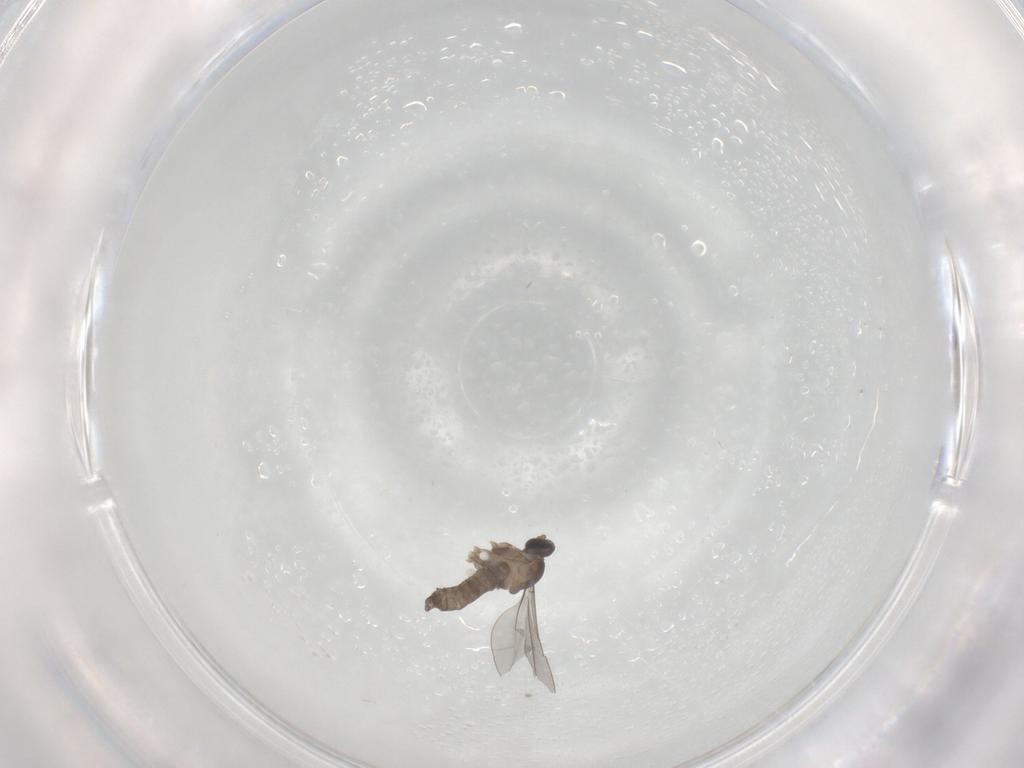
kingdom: Animalia
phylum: Arthropoda
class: Insecta
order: Diptera
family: Cecidomyiidae
